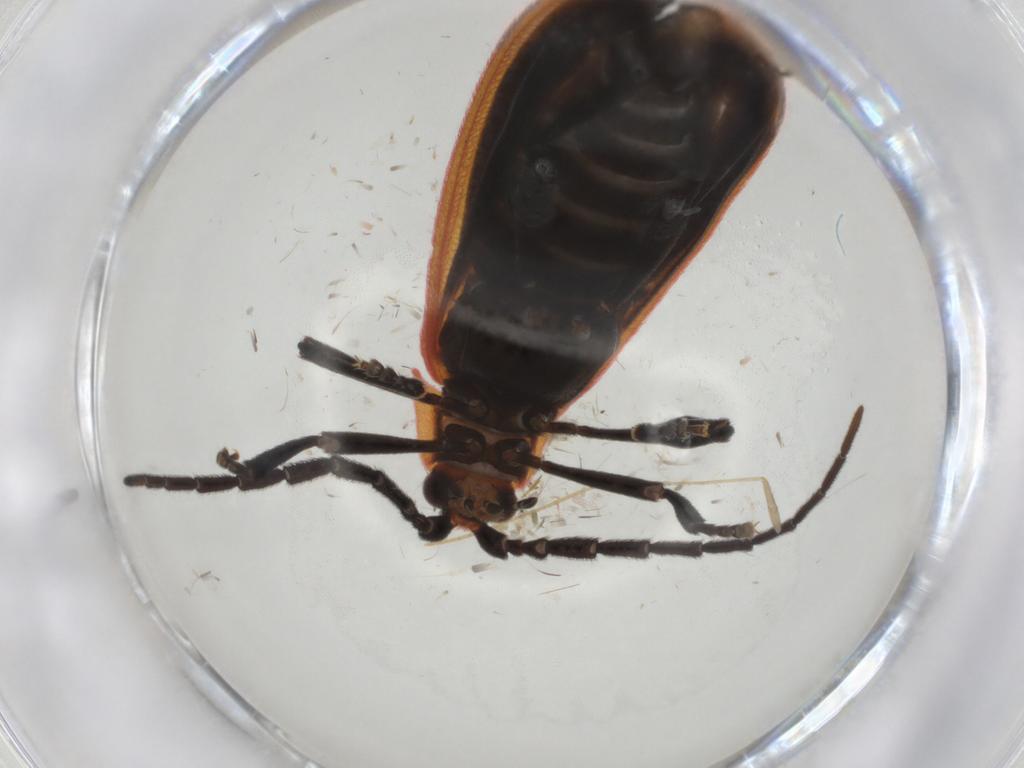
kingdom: Animalia
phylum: Arthropoda
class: Insecta
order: Coleoptera
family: Lycidae
